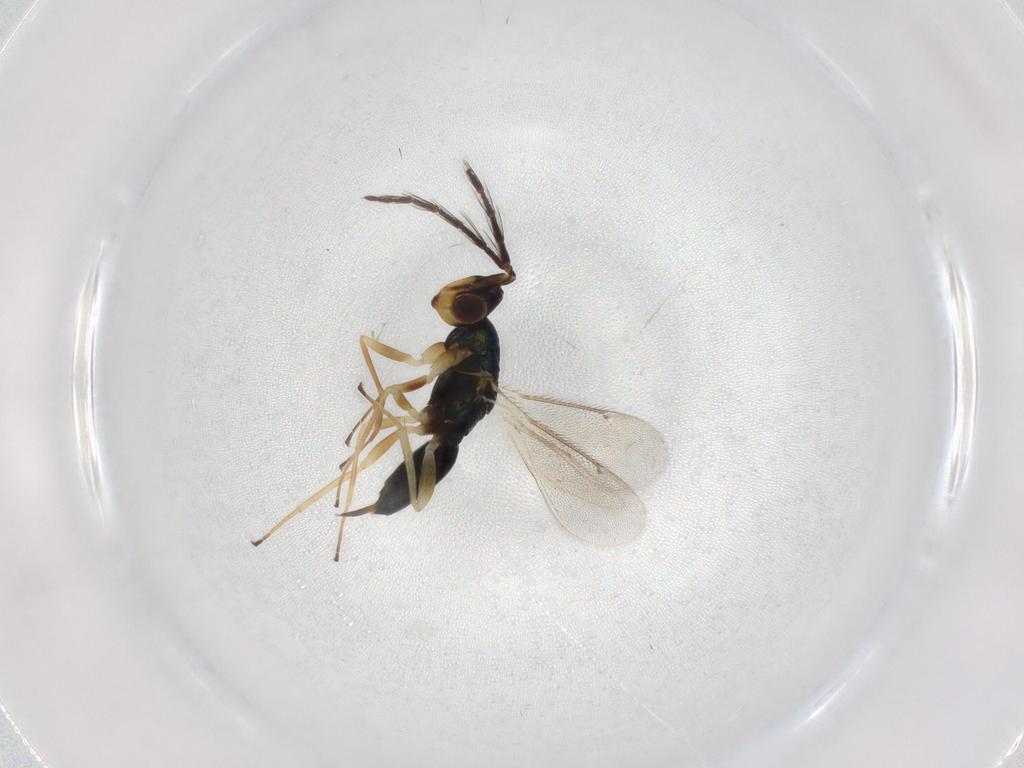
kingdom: Animalia
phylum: Arthropoda
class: Insecta
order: Hymenoptera
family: Eulophidae
